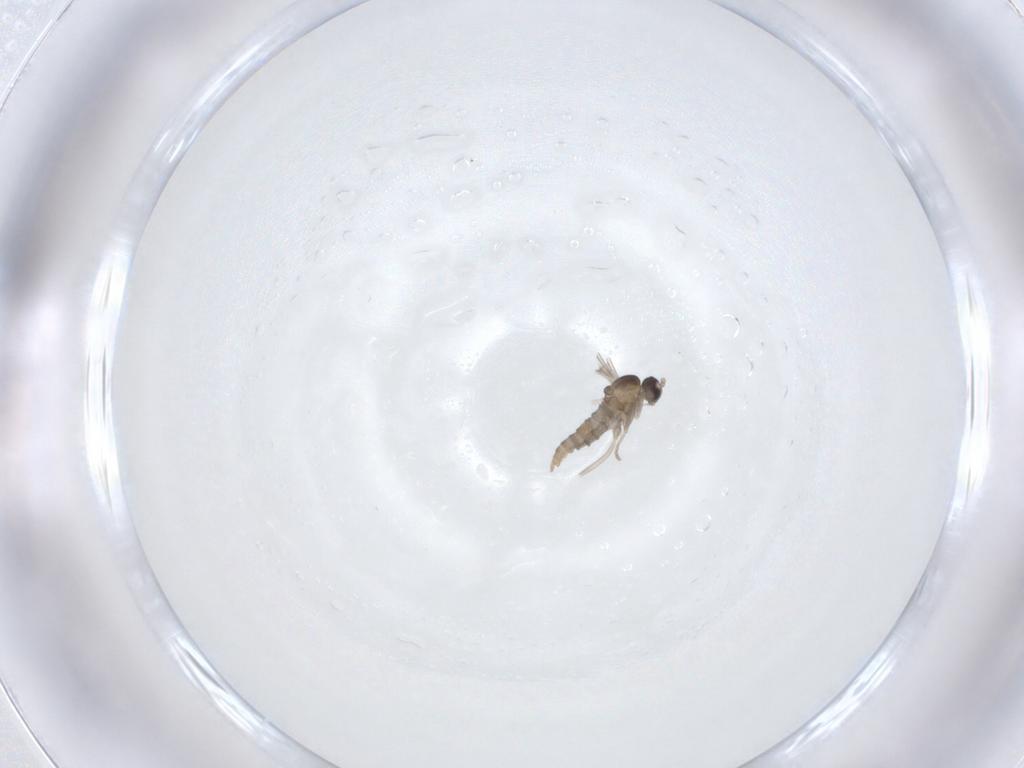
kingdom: Animalia
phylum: Arthropoda
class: Insecta
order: Diptera
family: Cecidomyiidae
